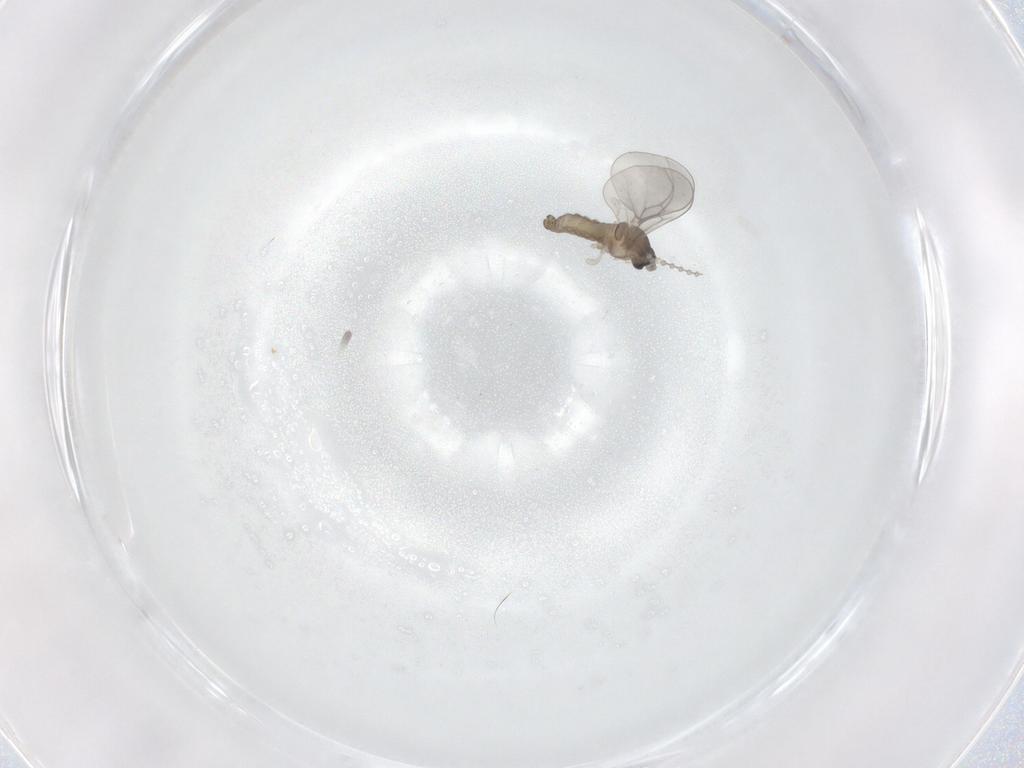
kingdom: Animalia
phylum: Arthropoda
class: Insecta
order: Diptera
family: Cecidomyiidae
